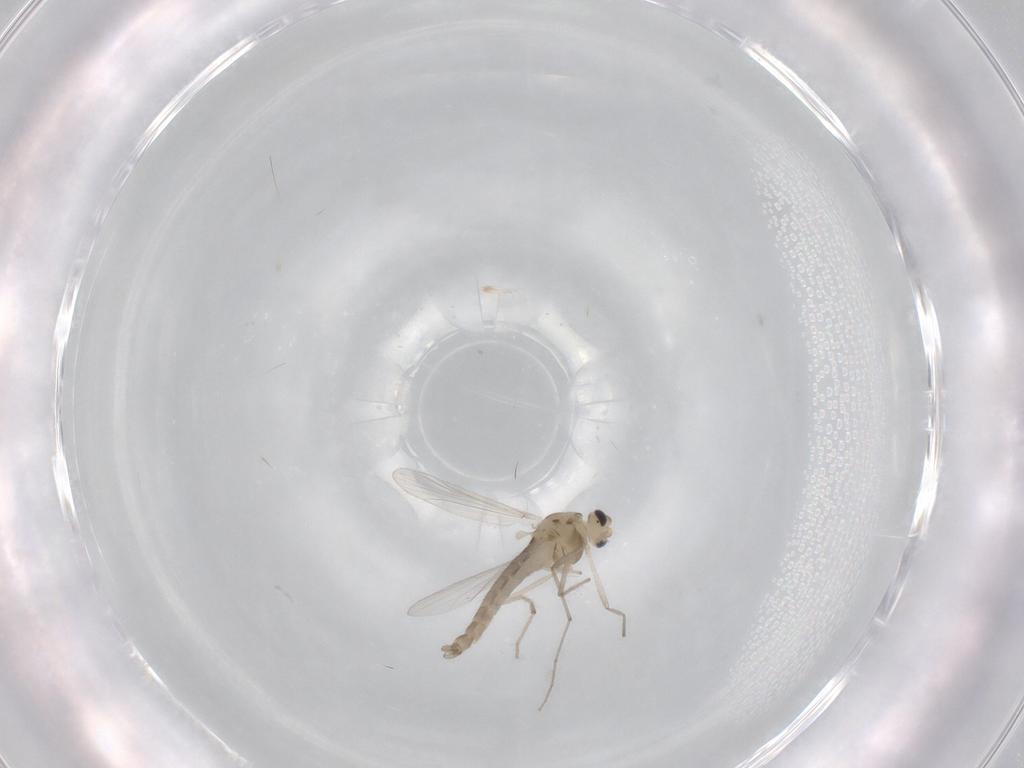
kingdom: Animalia
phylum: Arthropoda
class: Insecta
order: Diptera
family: Chironomidae
